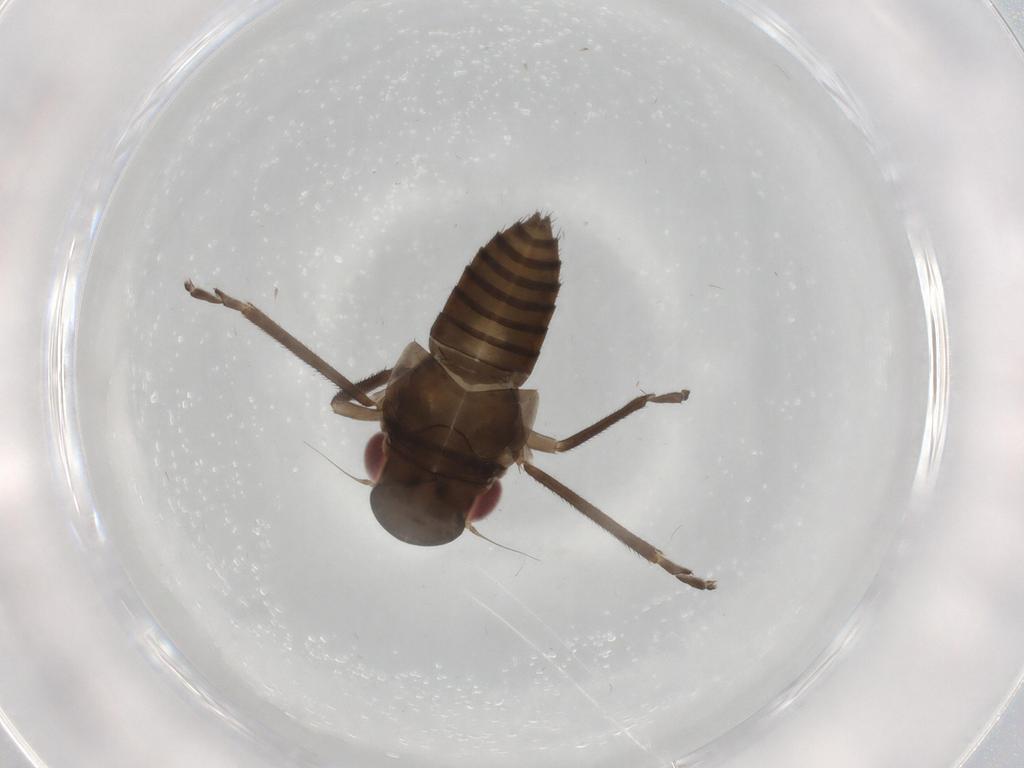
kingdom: Animalia
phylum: Arthropoda
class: Insecta
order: Hemiptera
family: Cicadellidae
